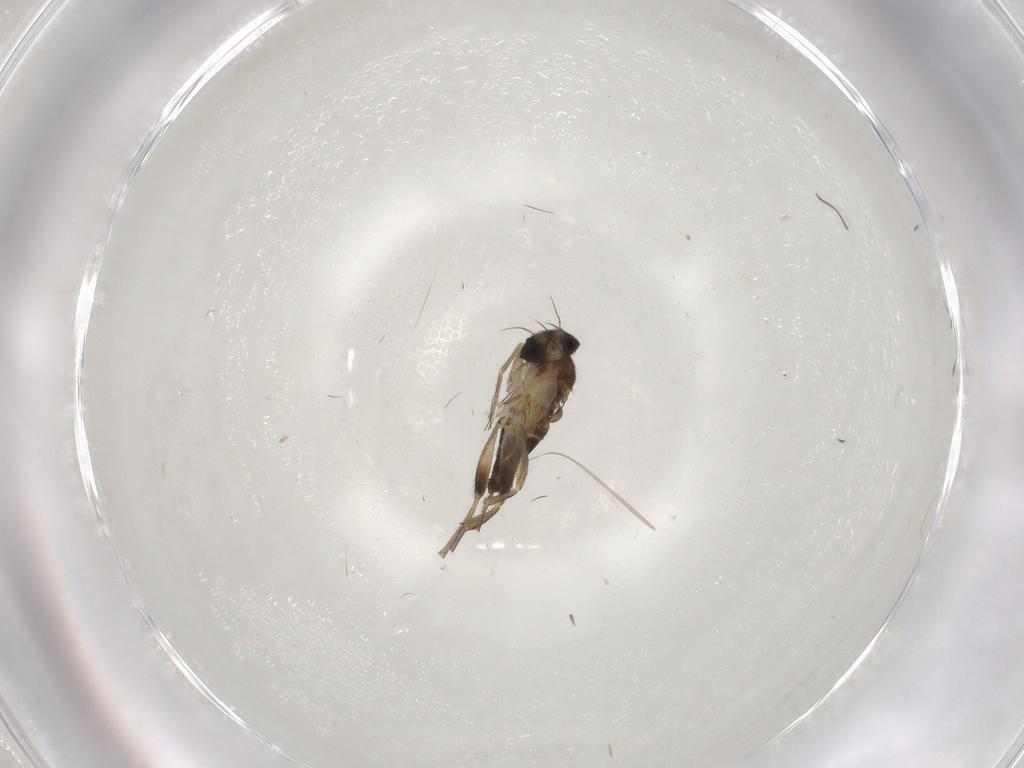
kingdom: Animalia
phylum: Arthropoda
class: Insecta
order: Diptera
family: Phoridae
